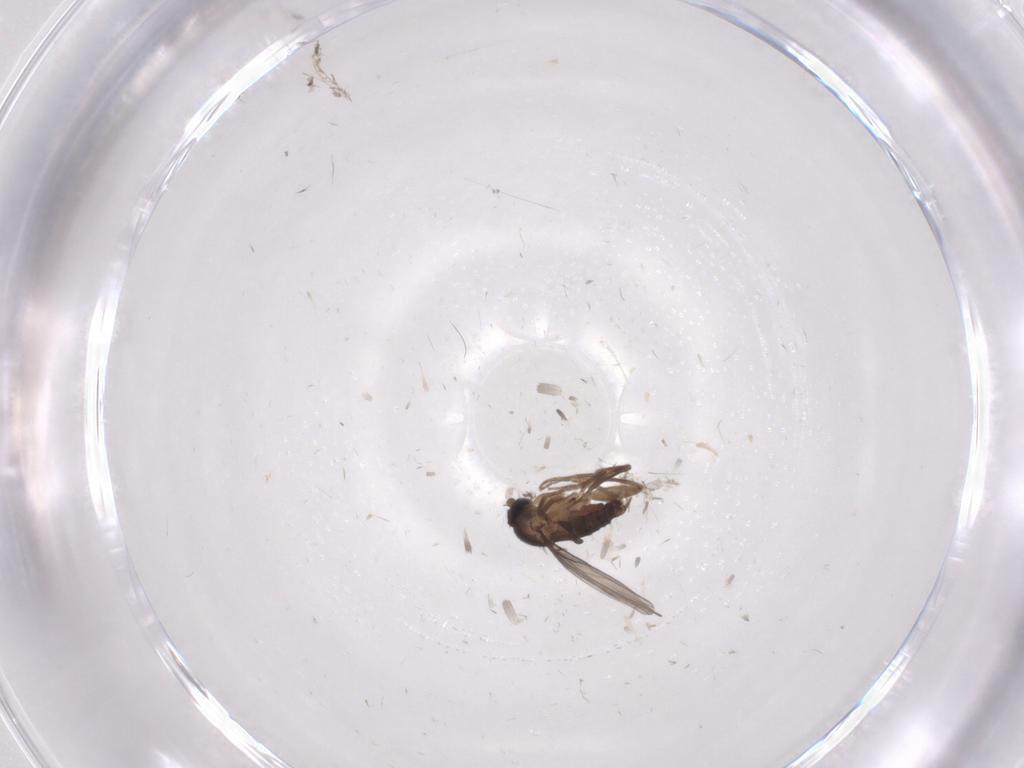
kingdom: Animalia
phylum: Arthropoda
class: Insecta
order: Diptera
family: Phoridae
